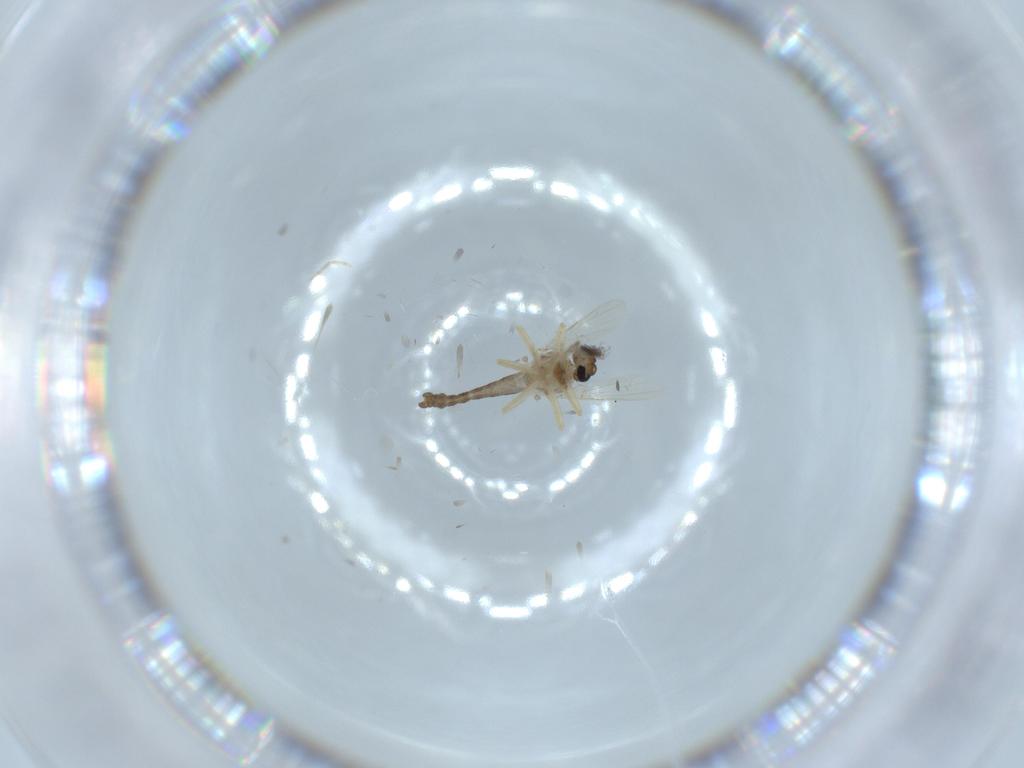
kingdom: Animalia
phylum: Arthropoda
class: Insecta
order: Diptera
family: Ceratopogonidae
